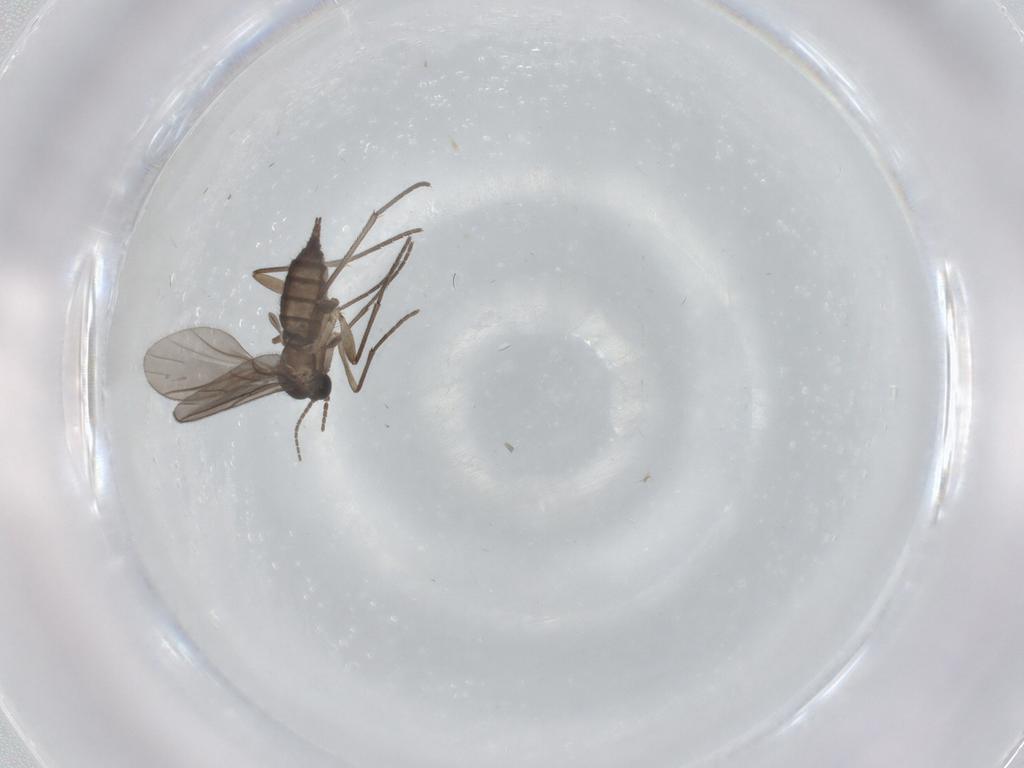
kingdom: Animalia
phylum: Arthropoda
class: Insecta
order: Diptera
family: Phoridae
